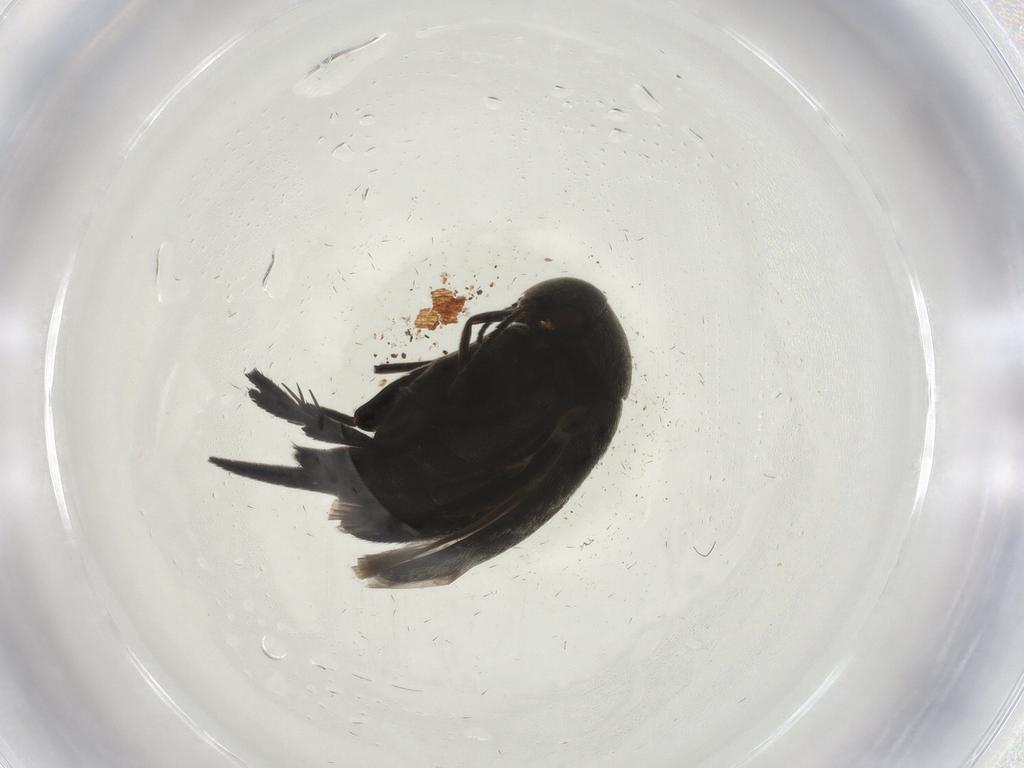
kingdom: Animalia
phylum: Arthropoda
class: Insecta
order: Coleoptera
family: Mordellidae
